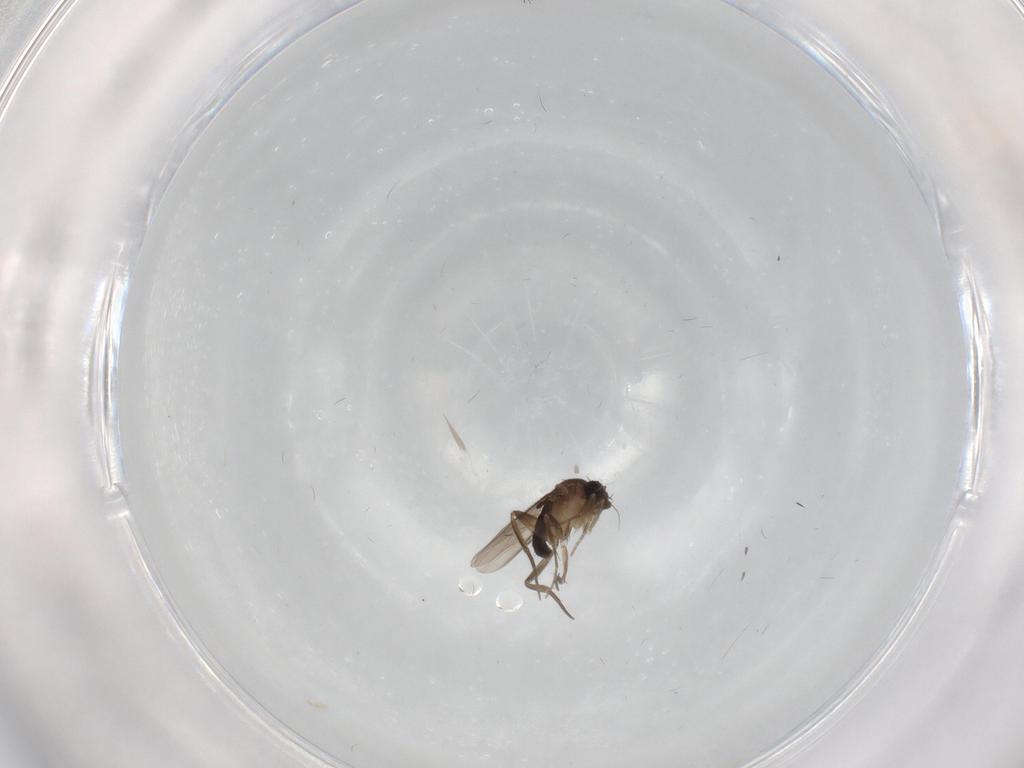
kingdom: Animalia
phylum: Arthropoda
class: Insecta
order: Diptera
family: Phoridae
